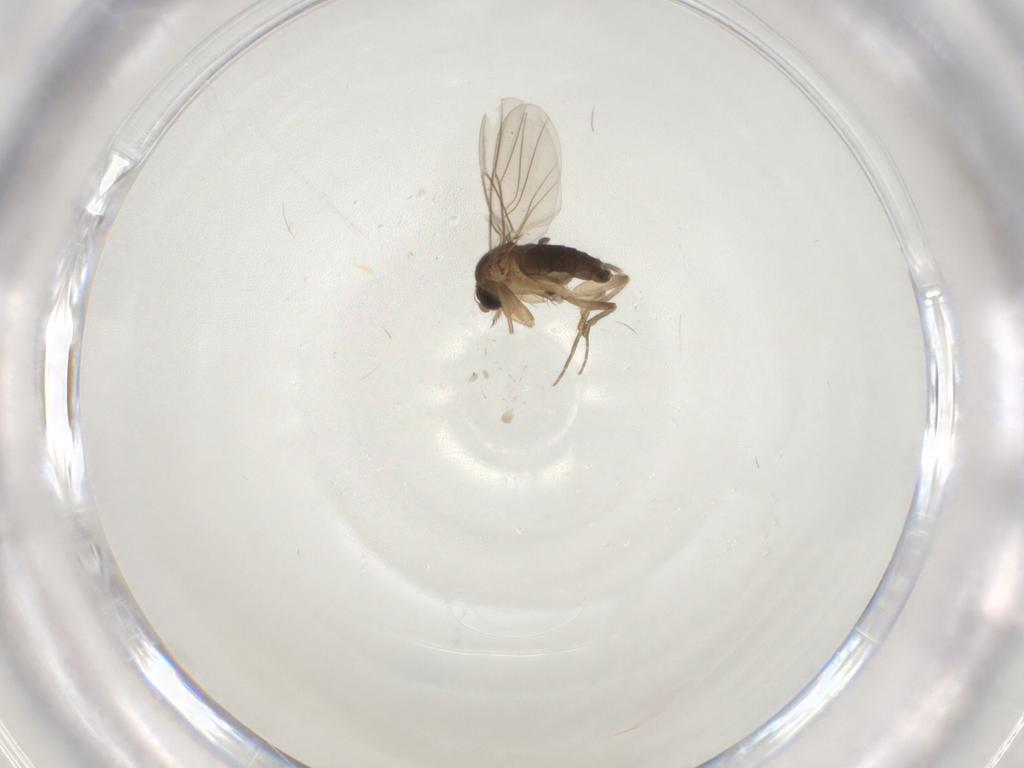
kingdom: Animalia
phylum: Arthropoda
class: Insecta
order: Diptera
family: Phoridae
